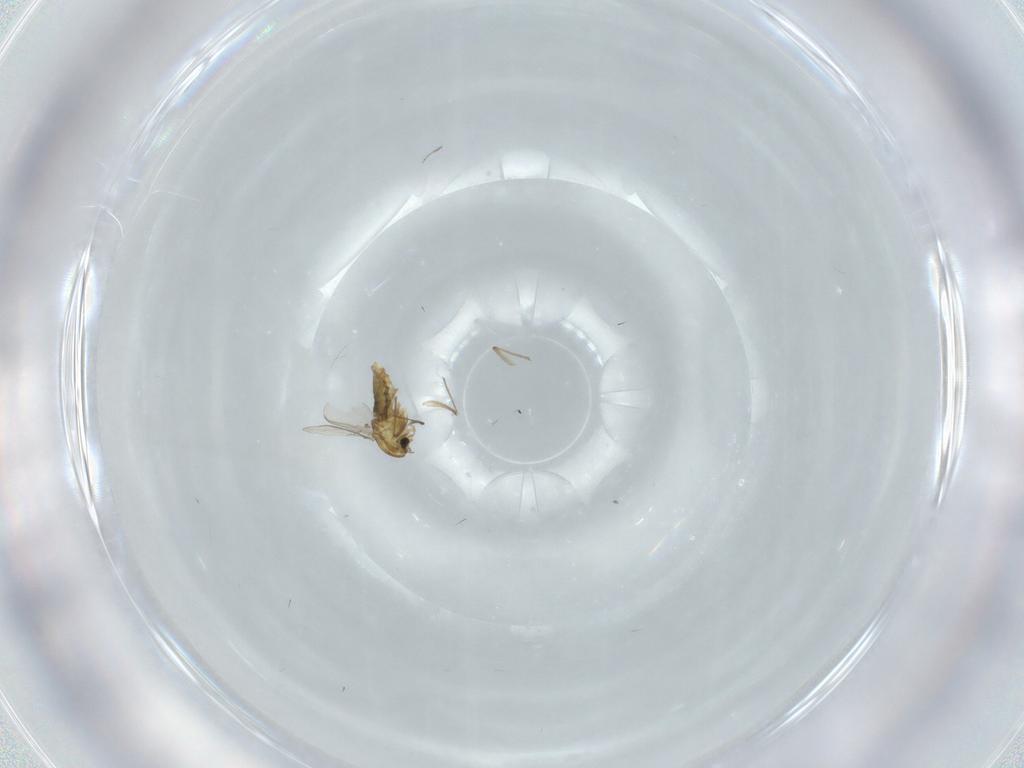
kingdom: Animalia
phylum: Arthropoda
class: Insecta
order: Diptera
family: Chironomidae
